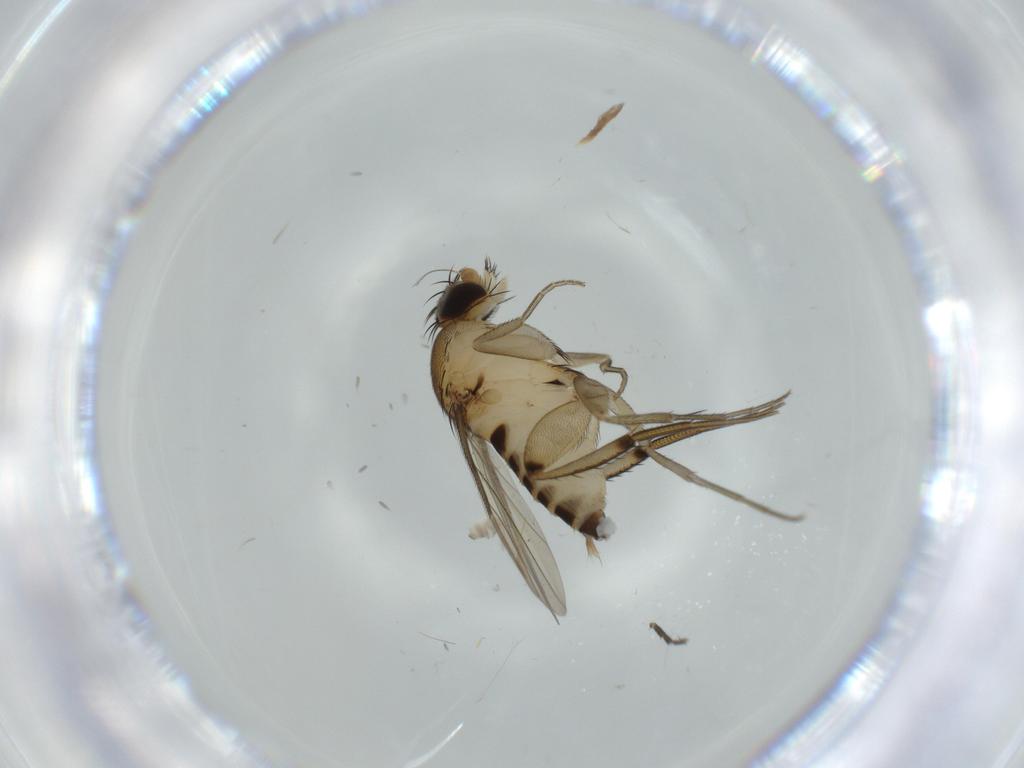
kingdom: Animalia
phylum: Arthropoda
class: Insecta
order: Diptera
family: Phoridae
